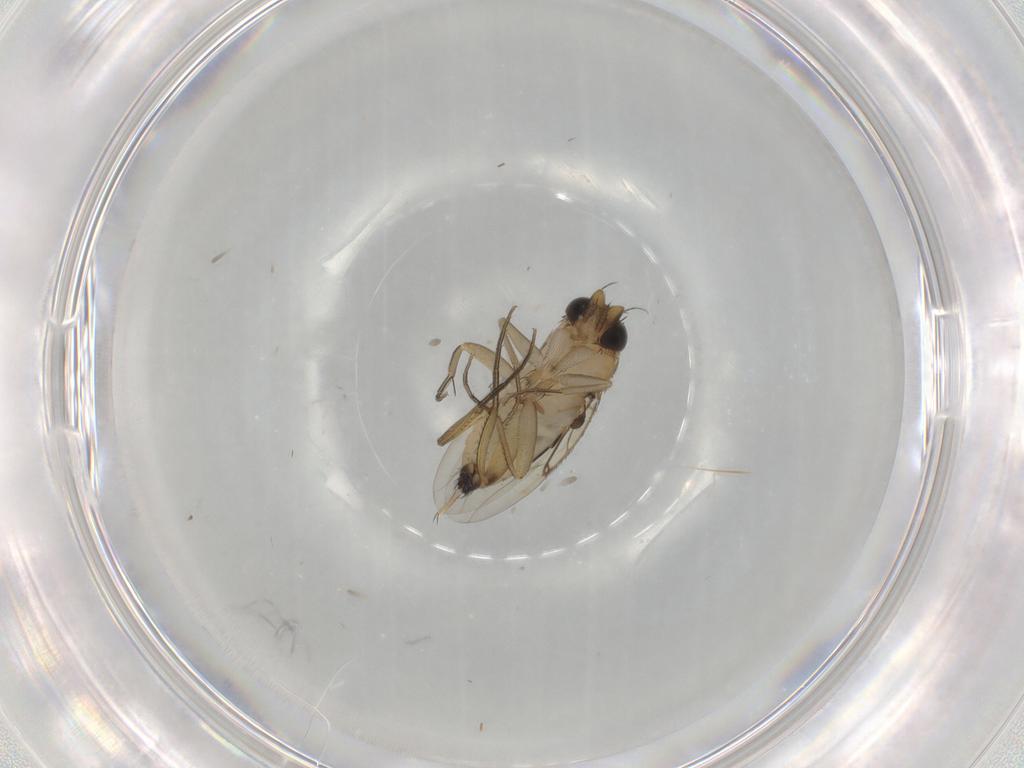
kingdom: Animalia
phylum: Arthropoda
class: Insecta
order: Diptera
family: Phoridae
